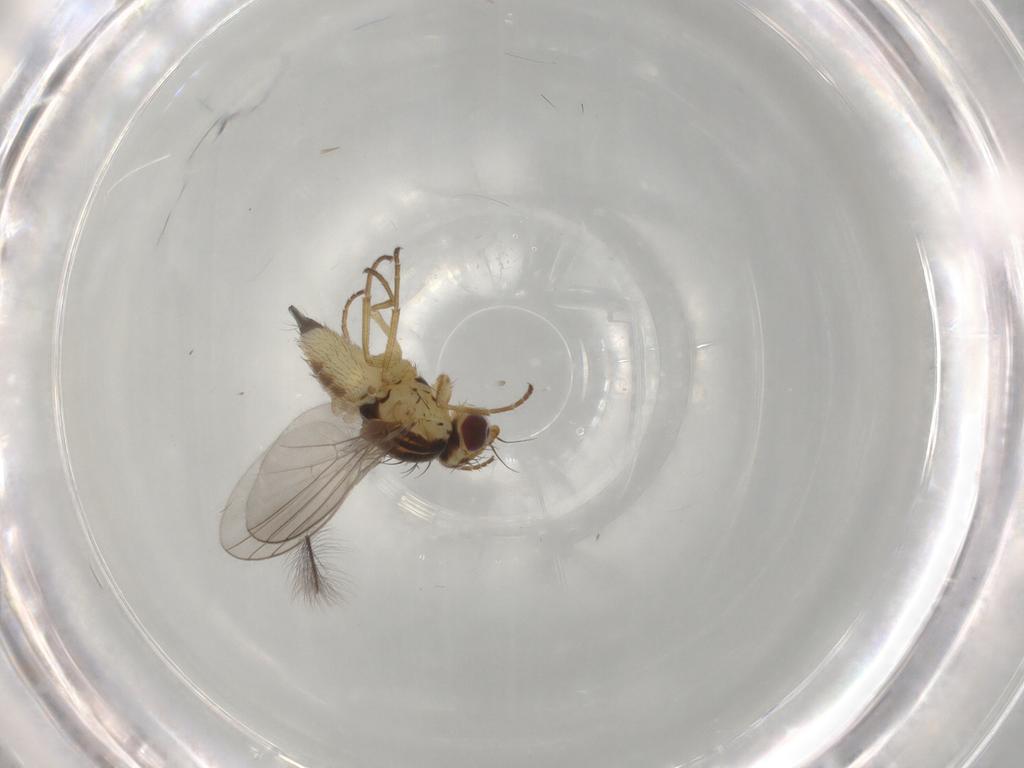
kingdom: Animalia
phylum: Arthropoda
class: Insecta
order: Diptera
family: Agromyzidae
